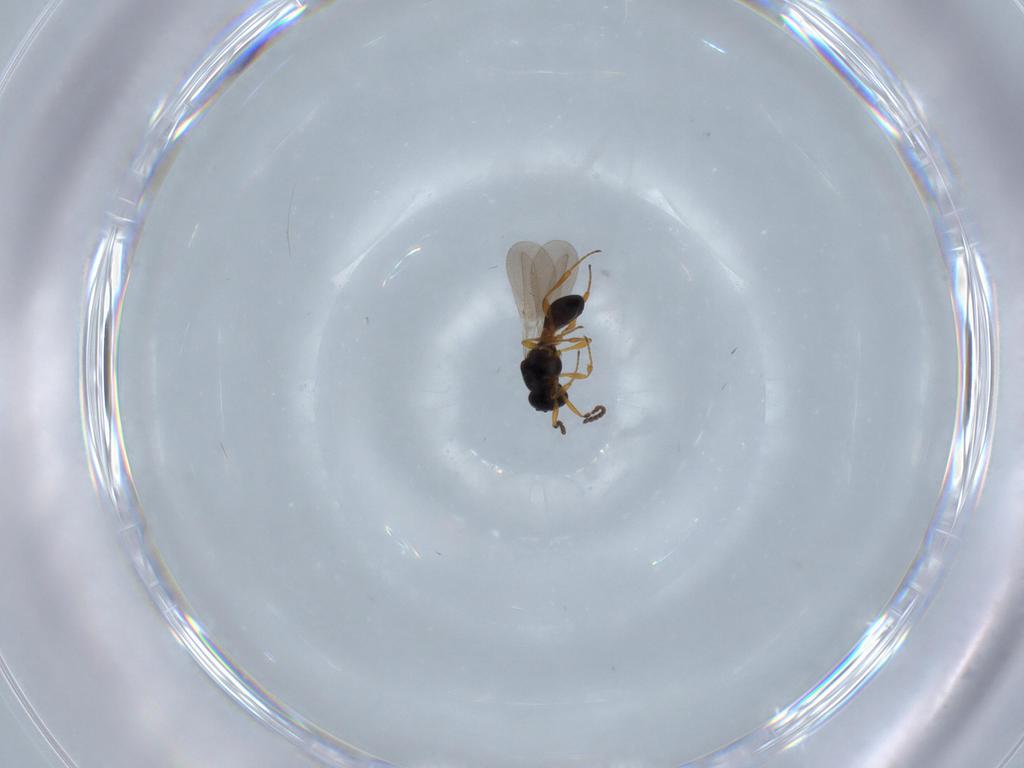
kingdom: Animalia
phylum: Arthropoda
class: Insecta
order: Hymenoptera
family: Platygastridae
